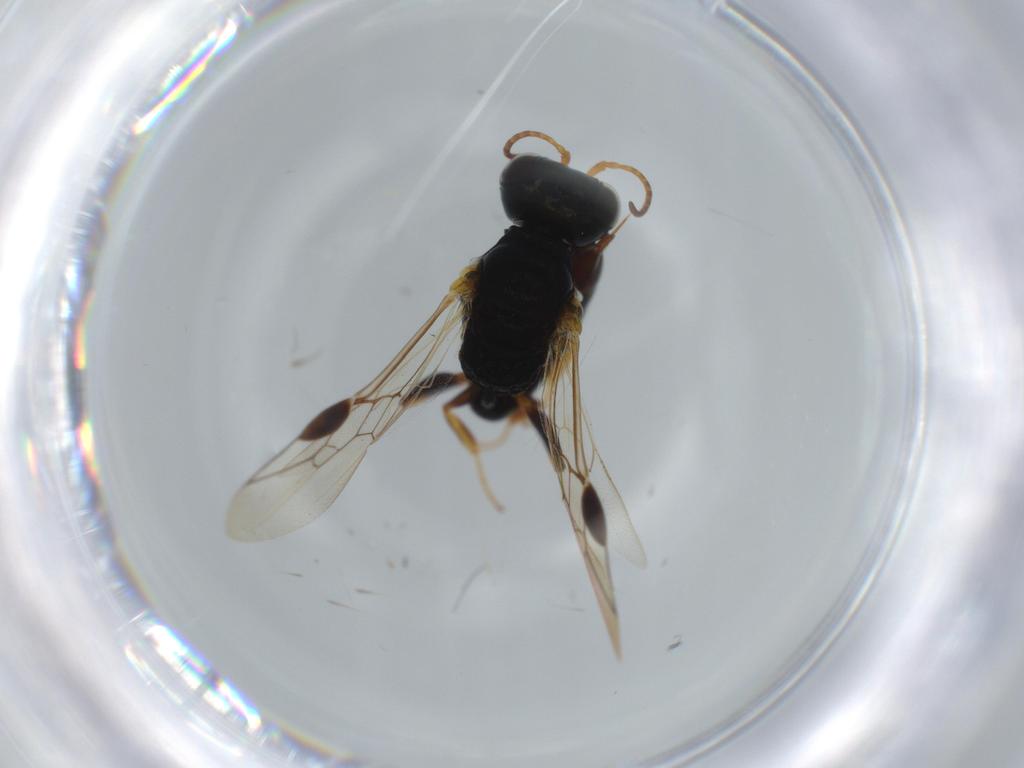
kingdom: Animalia
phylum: Arthropoda
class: Insecta
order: Hymenoptera
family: Crabronidae
